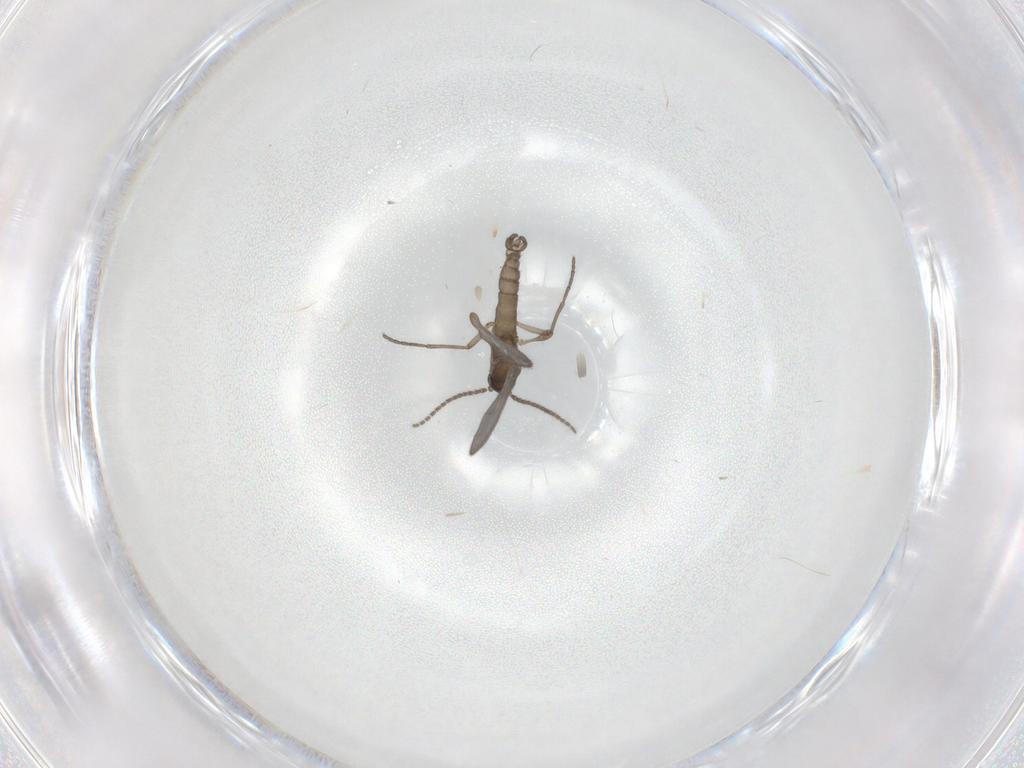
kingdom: Animalia
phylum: Arthropoda
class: Insecta
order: Diptera
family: Sciaridae
